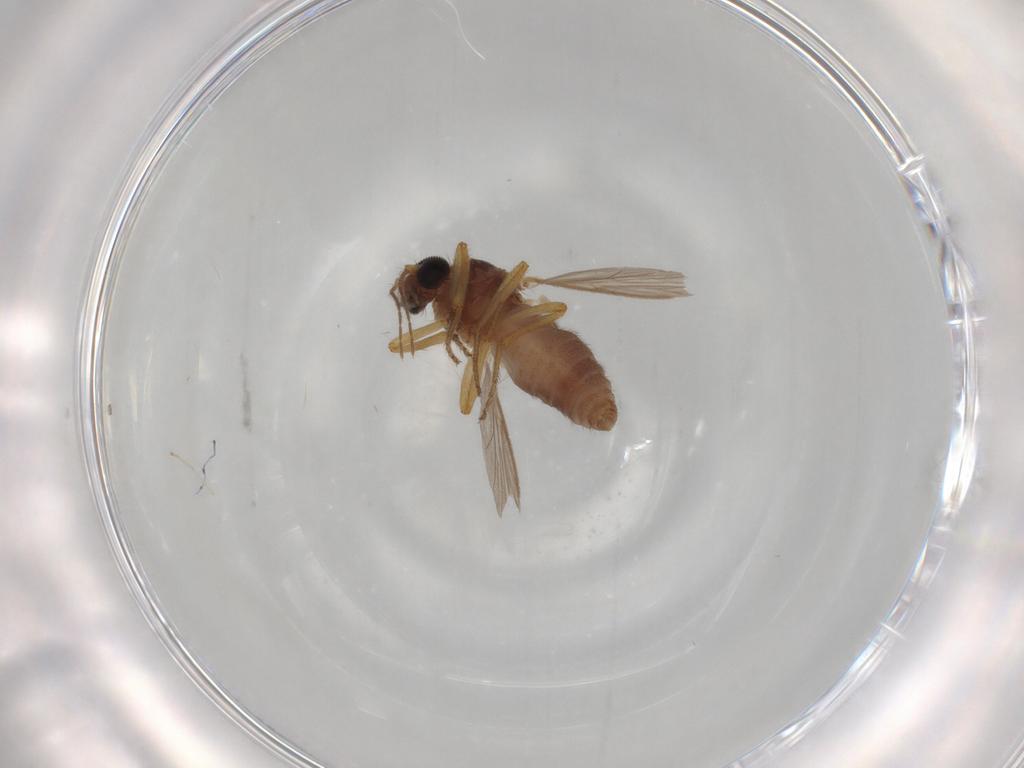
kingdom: Animalia
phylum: Arthropoda
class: Insecta
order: Diptera
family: Ceratopogonidae
